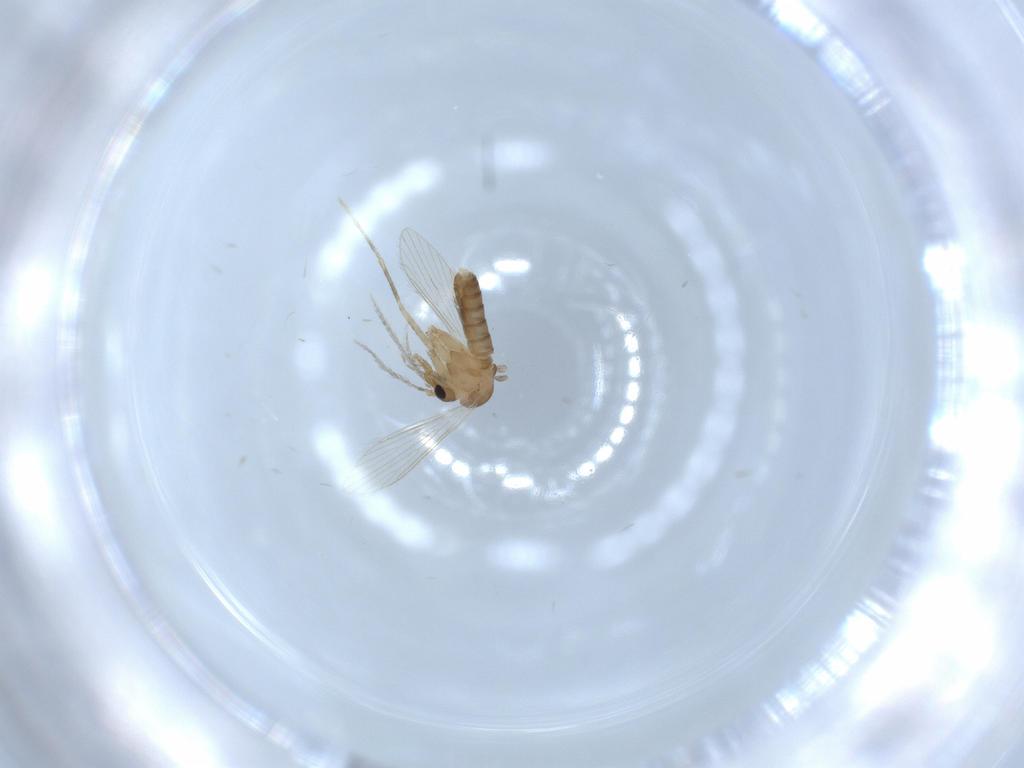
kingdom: Animalia
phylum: Arthropoda
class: Insecta
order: Diptera
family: Psychodidae
